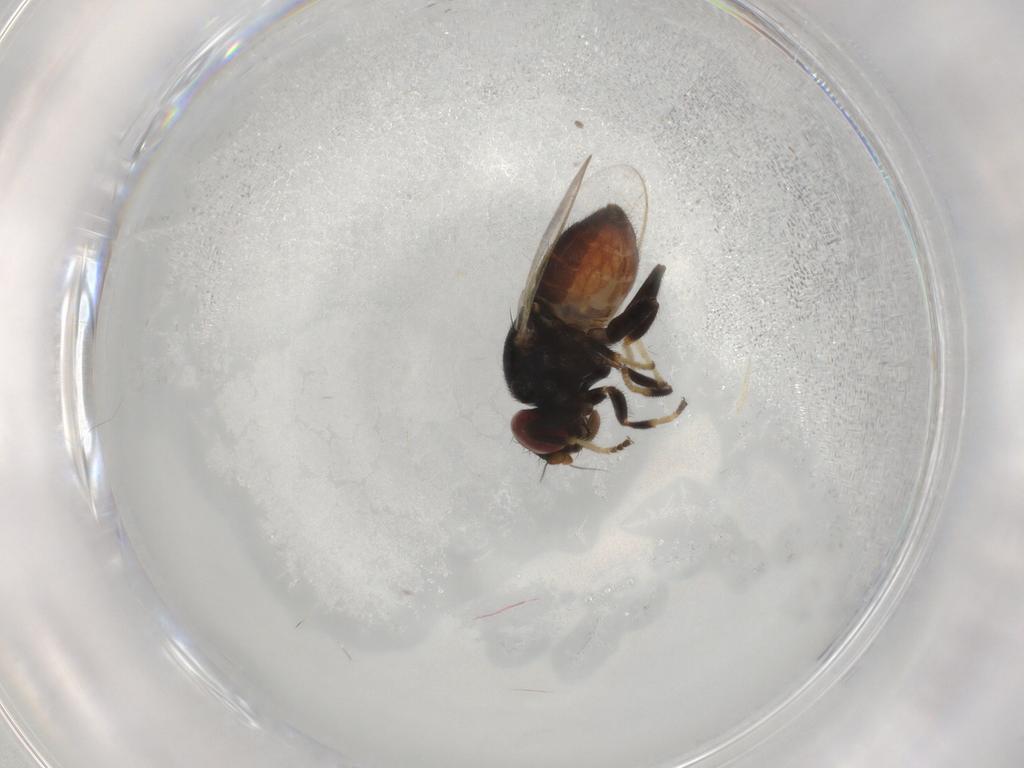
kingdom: Animalia
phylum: Arthropoda
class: Insecta
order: Diptera
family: Chloropidae
